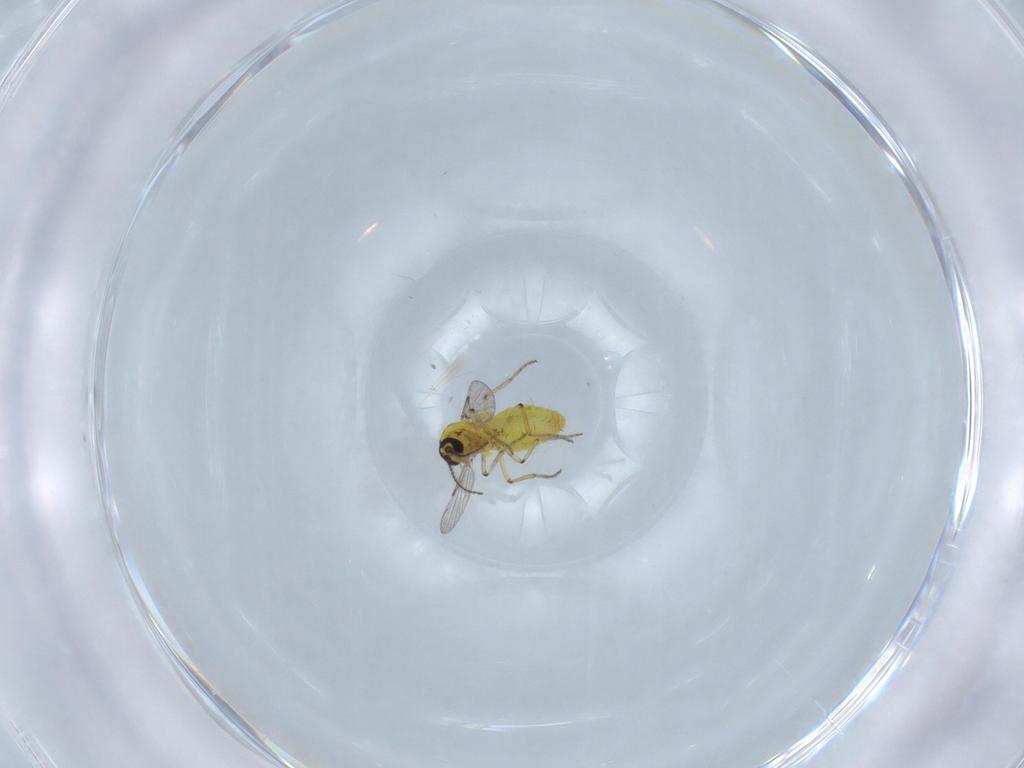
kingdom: Animalia
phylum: Arthropoda
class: Insecta
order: Diptera
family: Ceratopogonidae
